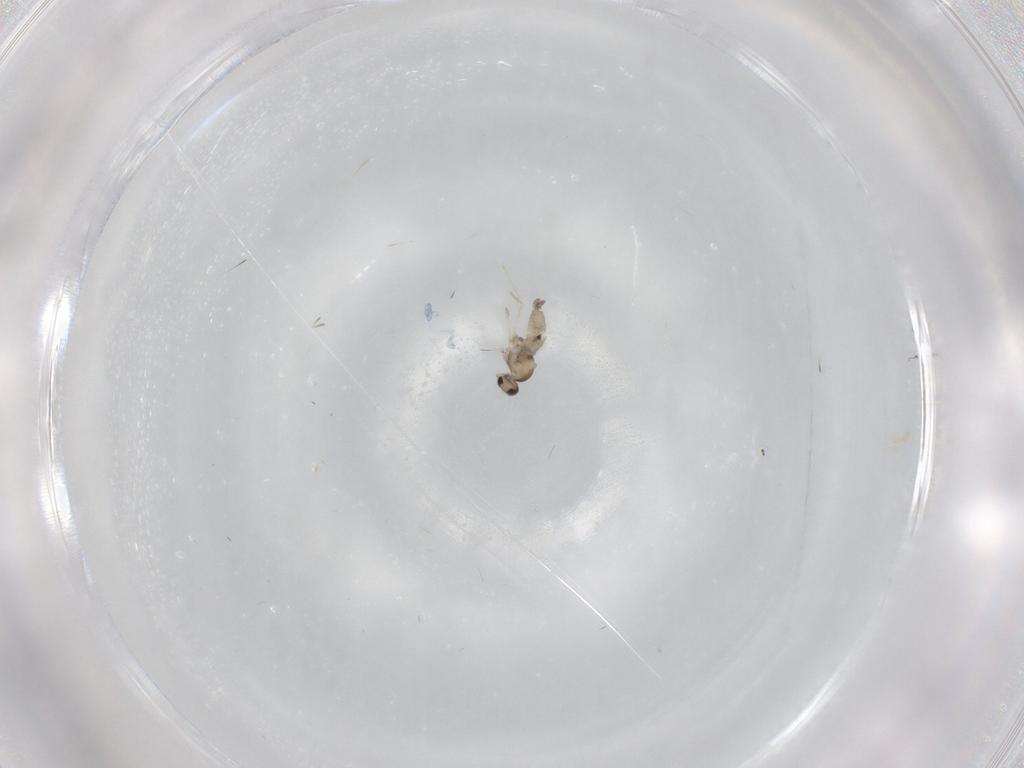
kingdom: Animalia
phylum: Arthropoda
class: Insecta
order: Diptera
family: Cecidomyiidae
